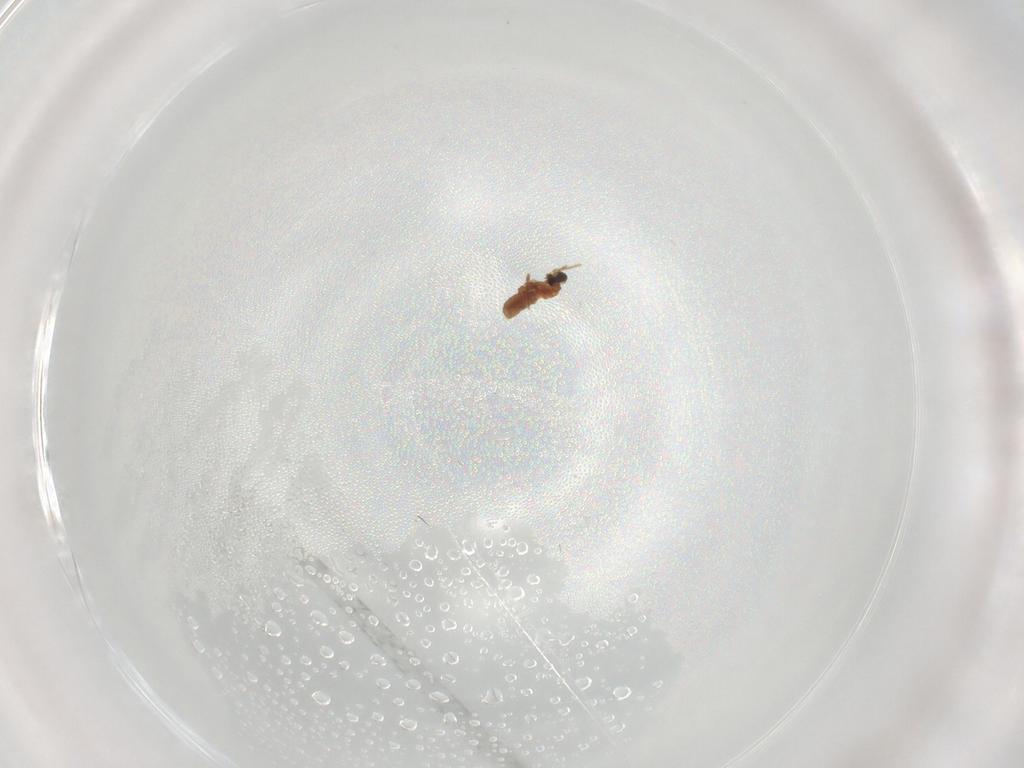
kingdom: Animalia
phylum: Arthropoda
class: Insecta
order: Diptera
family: Cecidomyiidae
